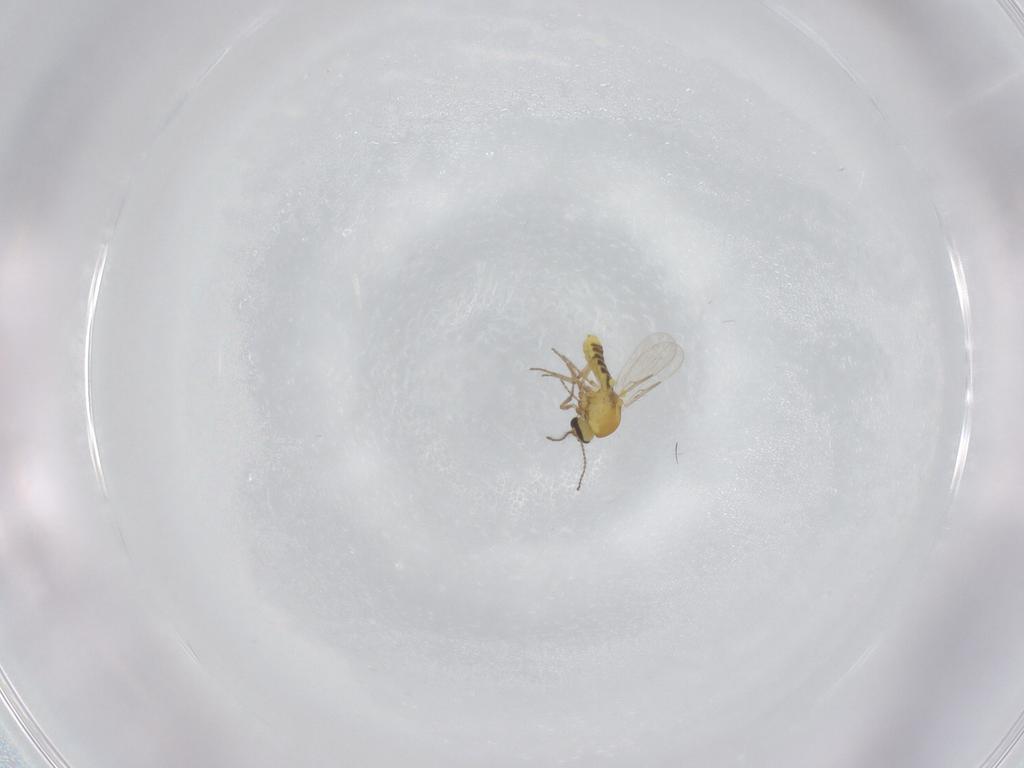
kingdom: Animalia
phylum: Arthropoda
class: Insecta
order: Diptera
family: Ceratopogonidae
